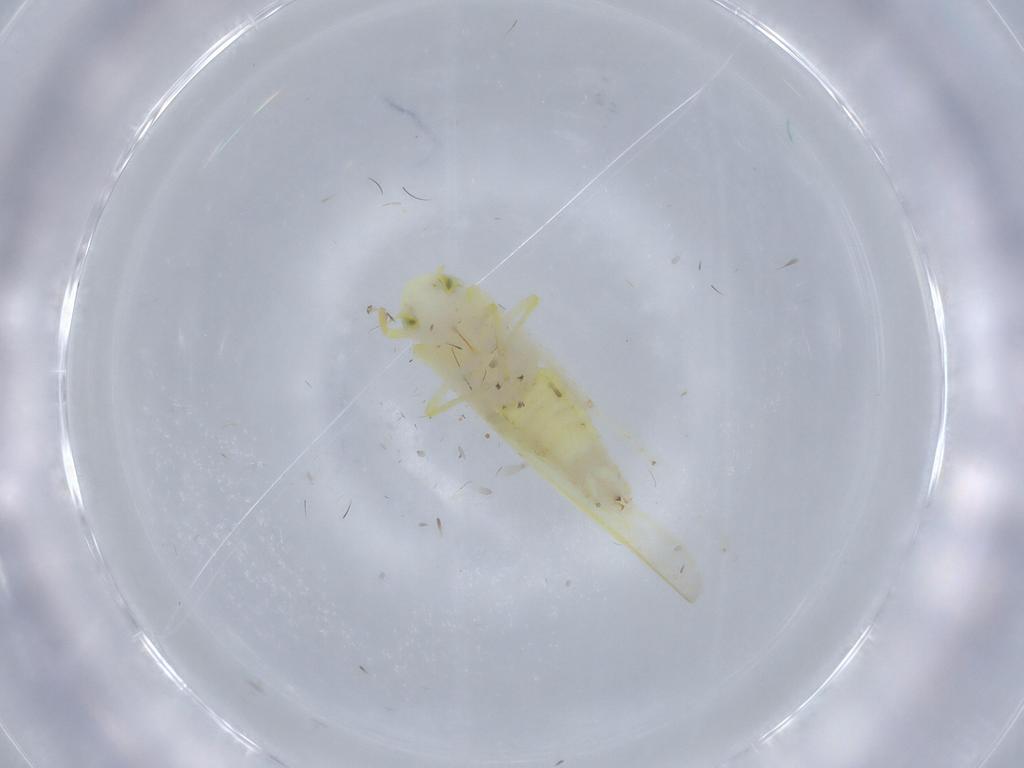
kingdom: Animalia
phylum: Arthropoda
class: Insecta
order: Hemiptera
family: Cicadellidae
